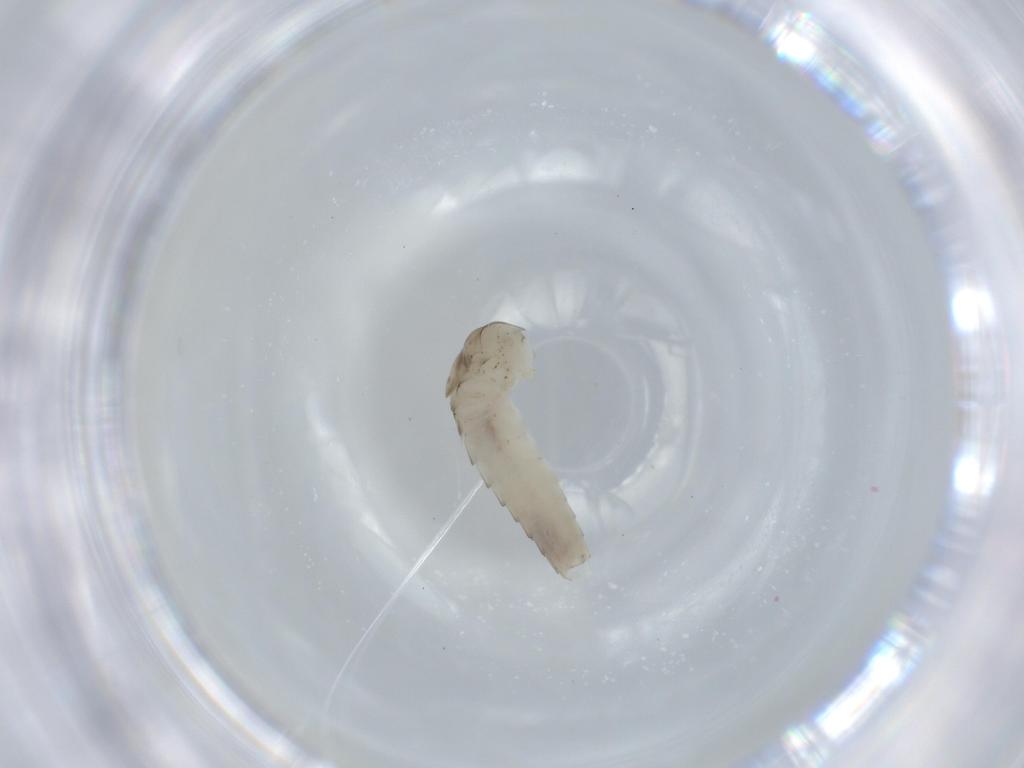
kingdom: Animalia
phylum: Arthropoda
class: Insecta
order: Ephemeroptera
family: Baetidae
